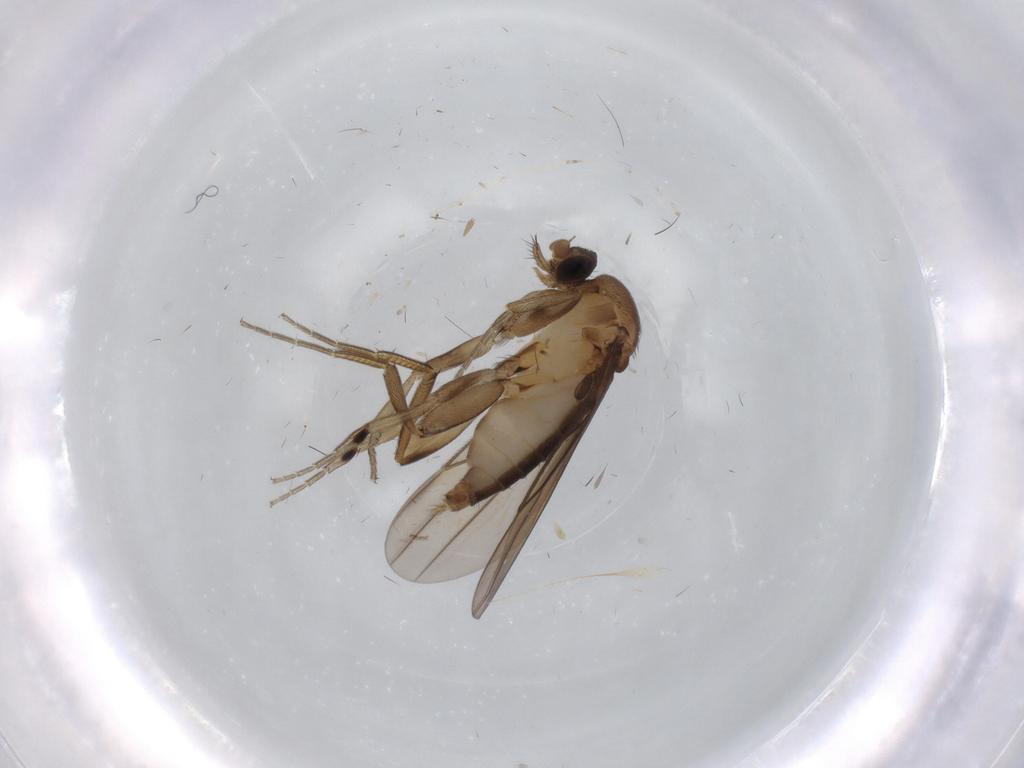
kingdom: Animalia
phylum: Arthropoda
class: Insecta
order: Diptera
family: Phoridae
